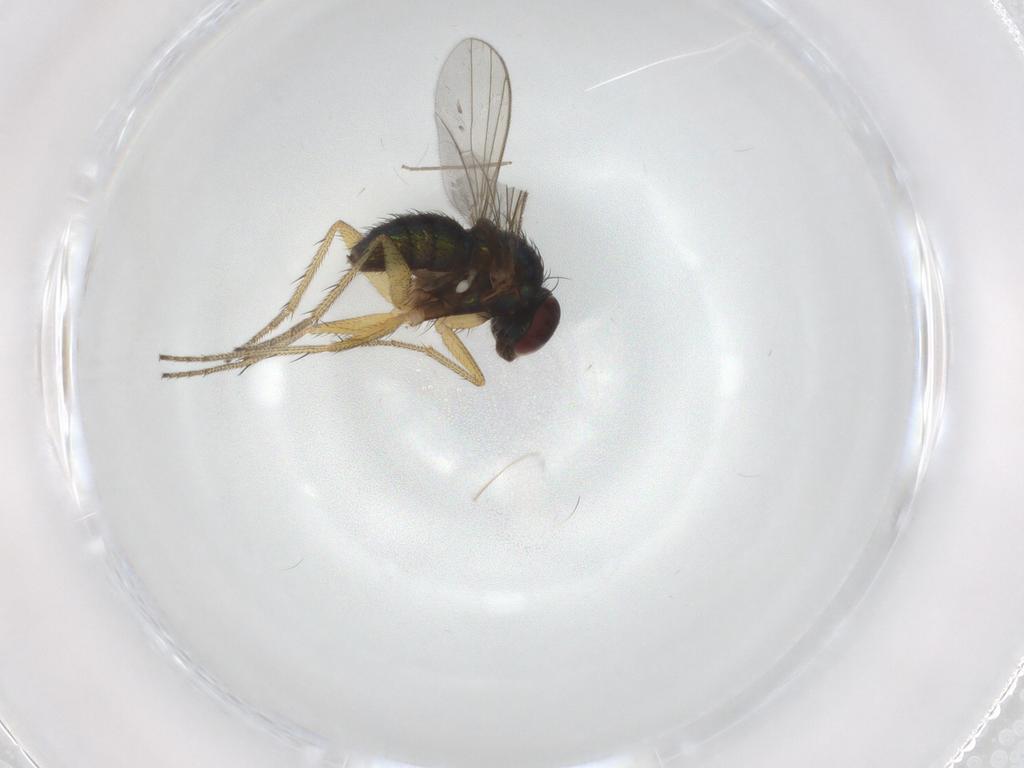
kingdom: Animalia
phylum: Arthropoda
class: Insecta
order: Diptera
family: Dolichopodidae
